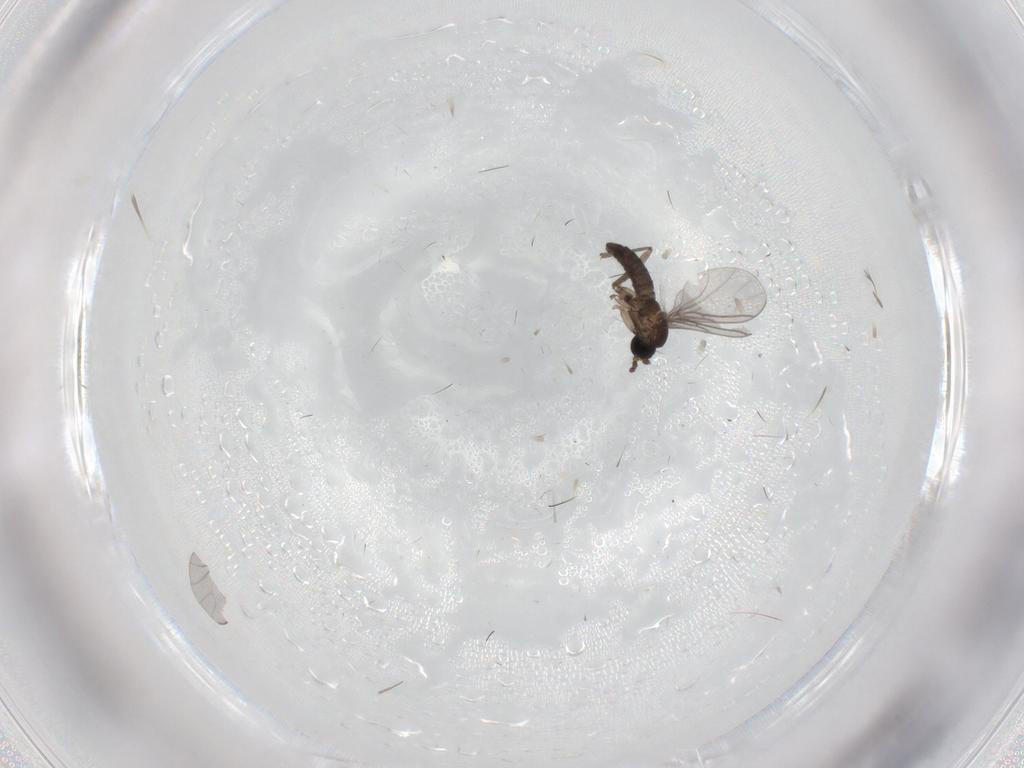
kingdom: Animalia
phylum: Arthropoda
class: Insecta
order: Diptera
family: Cecidomyiidae
